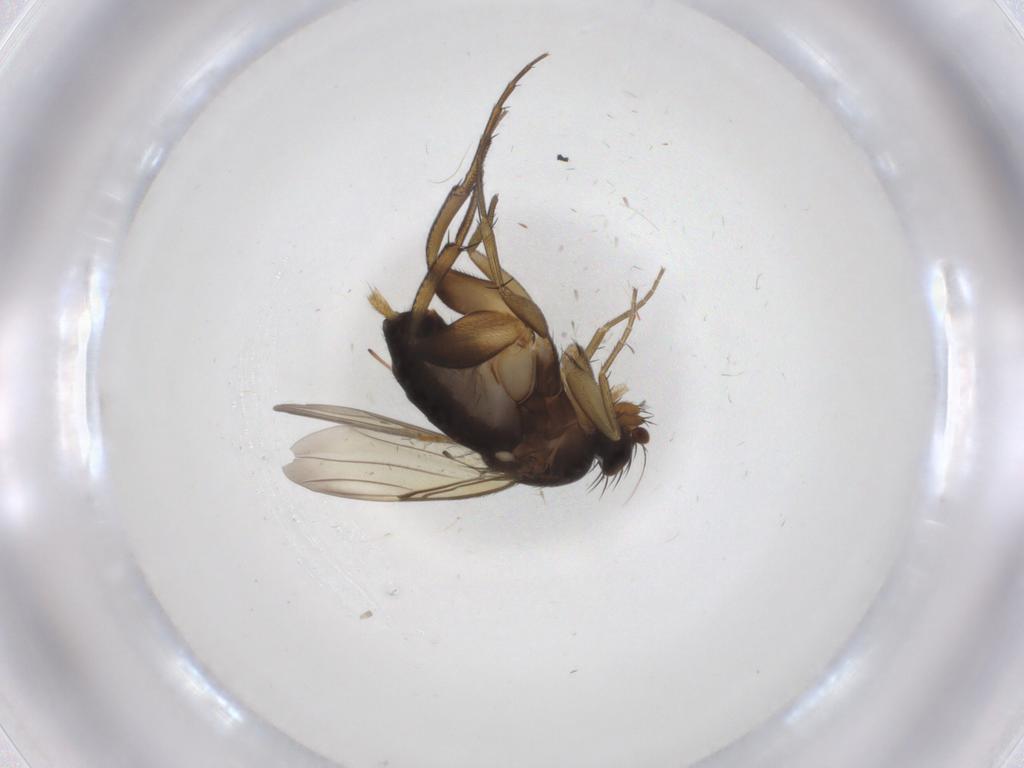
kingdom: Animalia
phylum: Arthropoda
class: Insecta
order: Diptera
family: Phoridae
